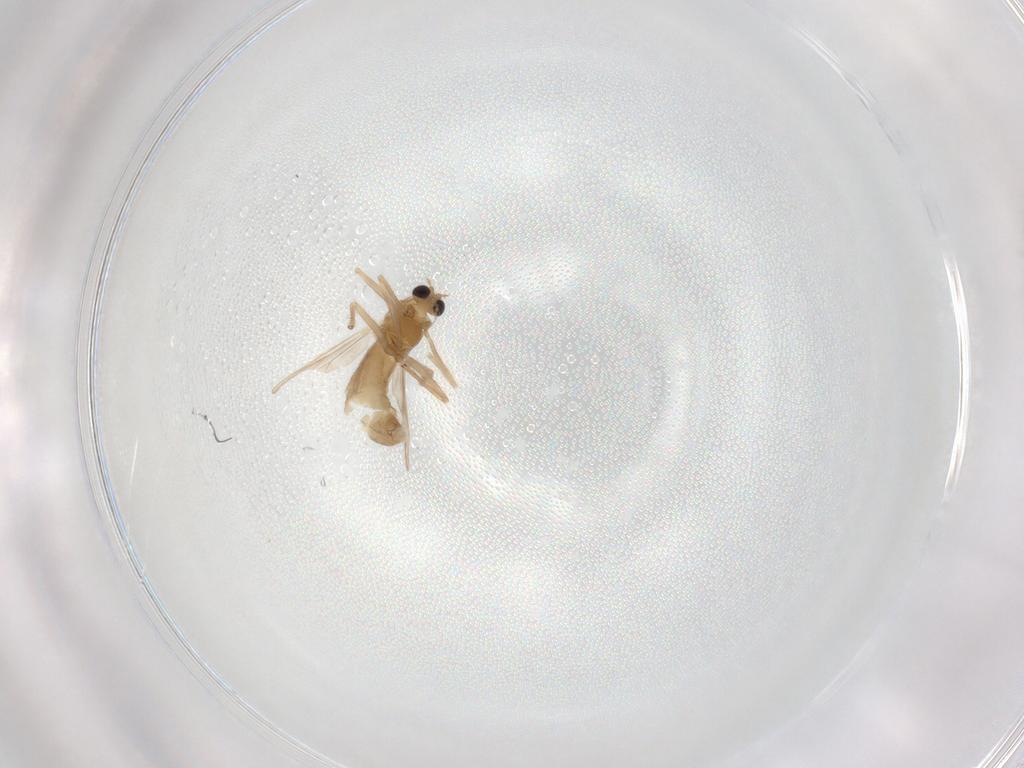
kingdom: Animalia
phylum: Arthropoda
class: Insecta
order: Diptera
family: Chironomidae
